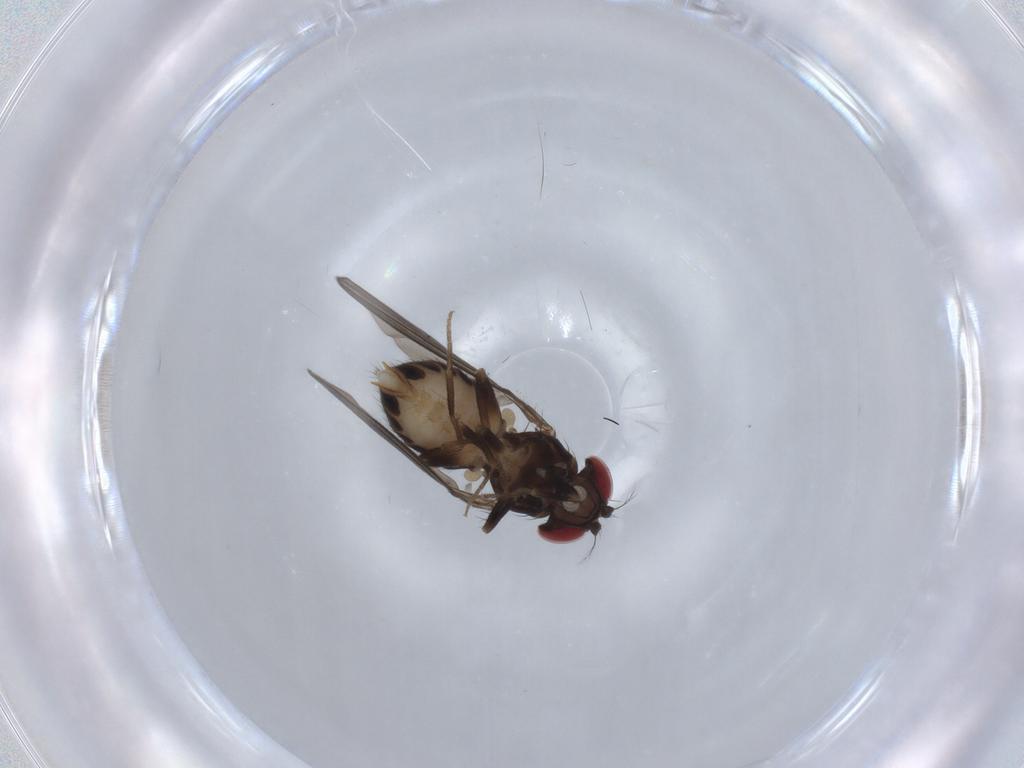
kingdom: Animalia
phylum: Arthropoda
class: Insecta
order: Diptera
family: Drosophilidae
